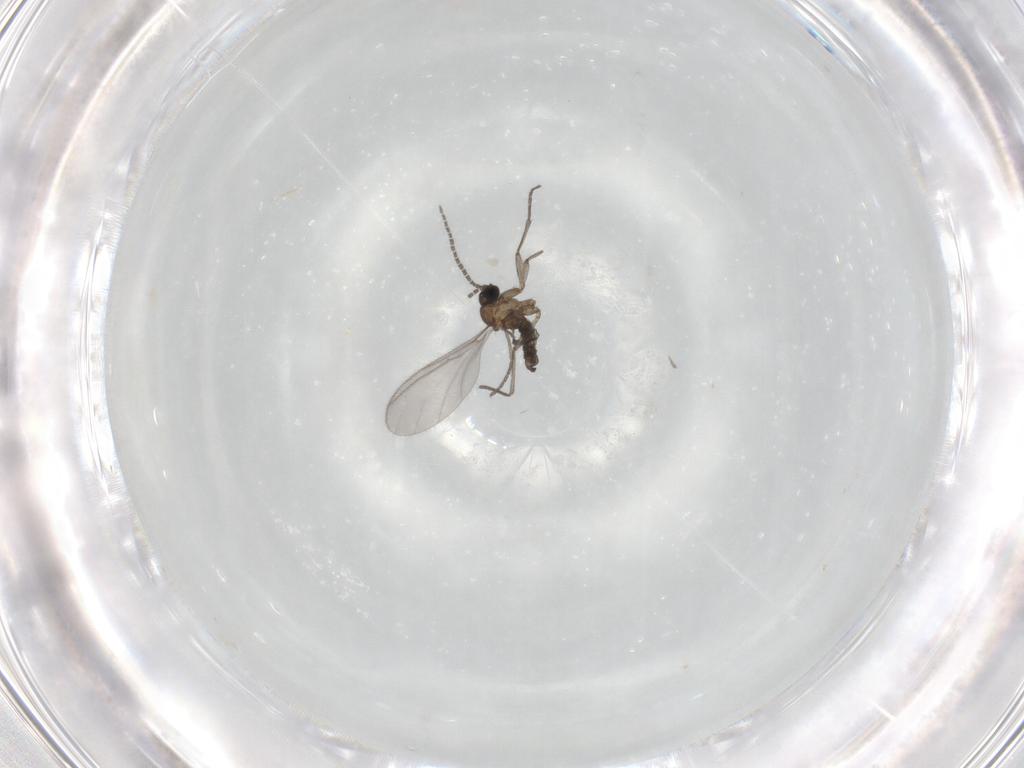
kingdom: Animalia
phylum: Arthropoda
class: Insecta
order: Diptera
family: Sciaridae
